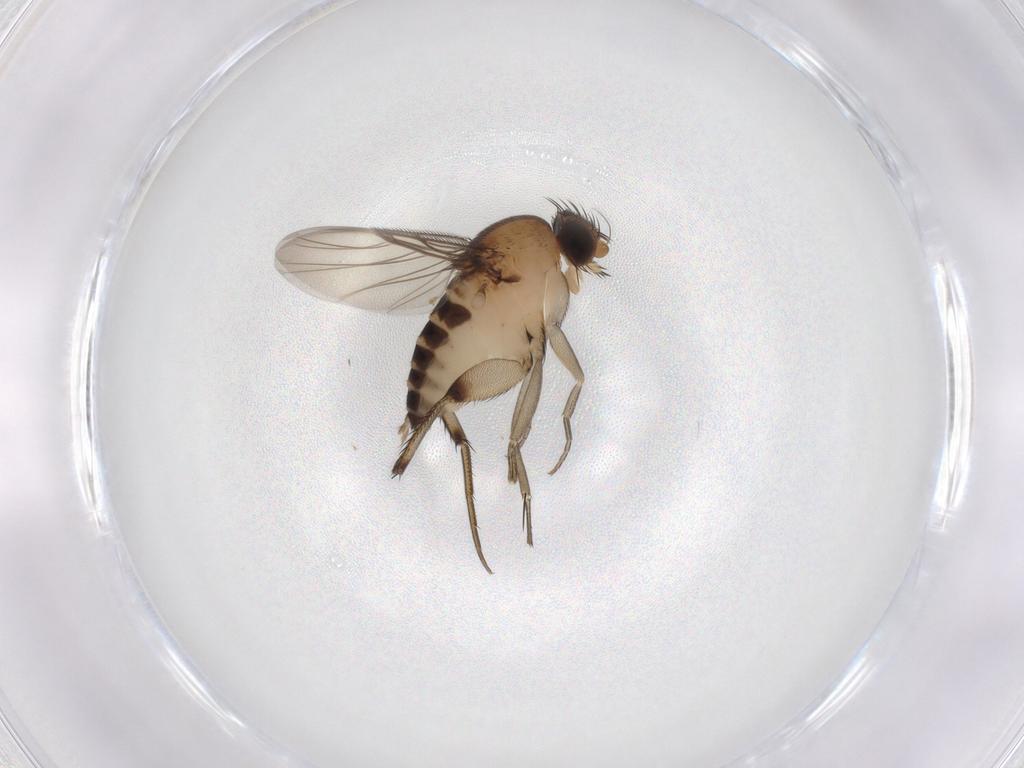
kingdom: Animalia
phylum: Arthropoda
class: Insecta
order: Diptera
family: Phoridae
